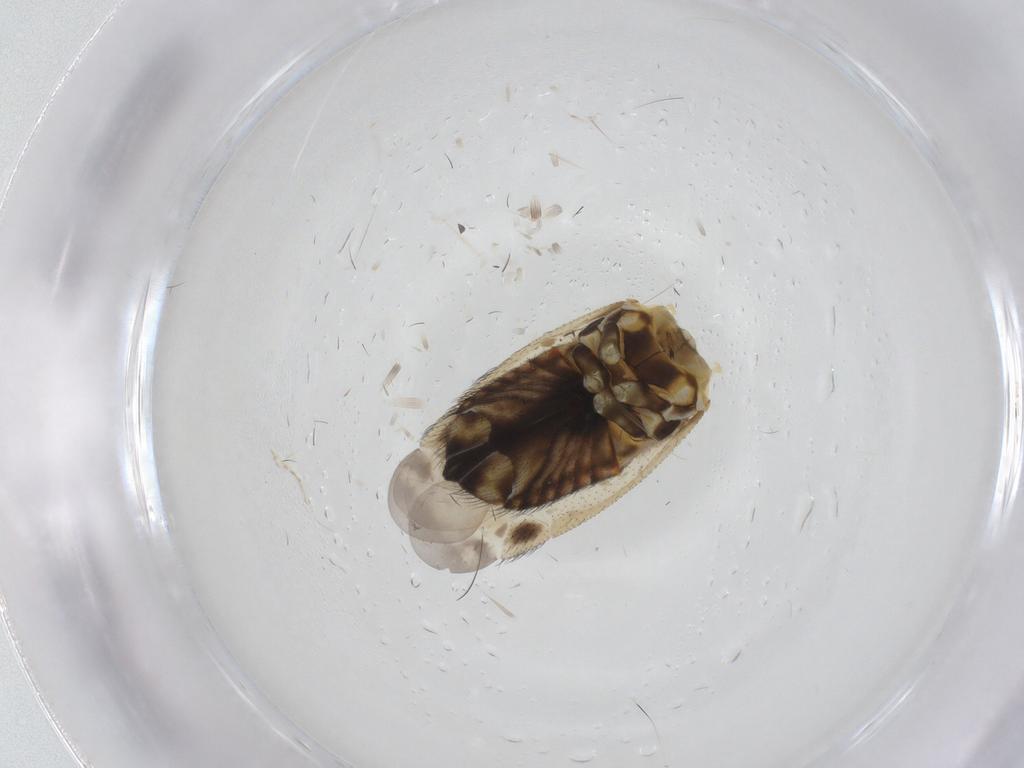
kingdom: Animalia
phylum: Arthropoda
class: Insecta
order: Hemiptera
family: Miridae
